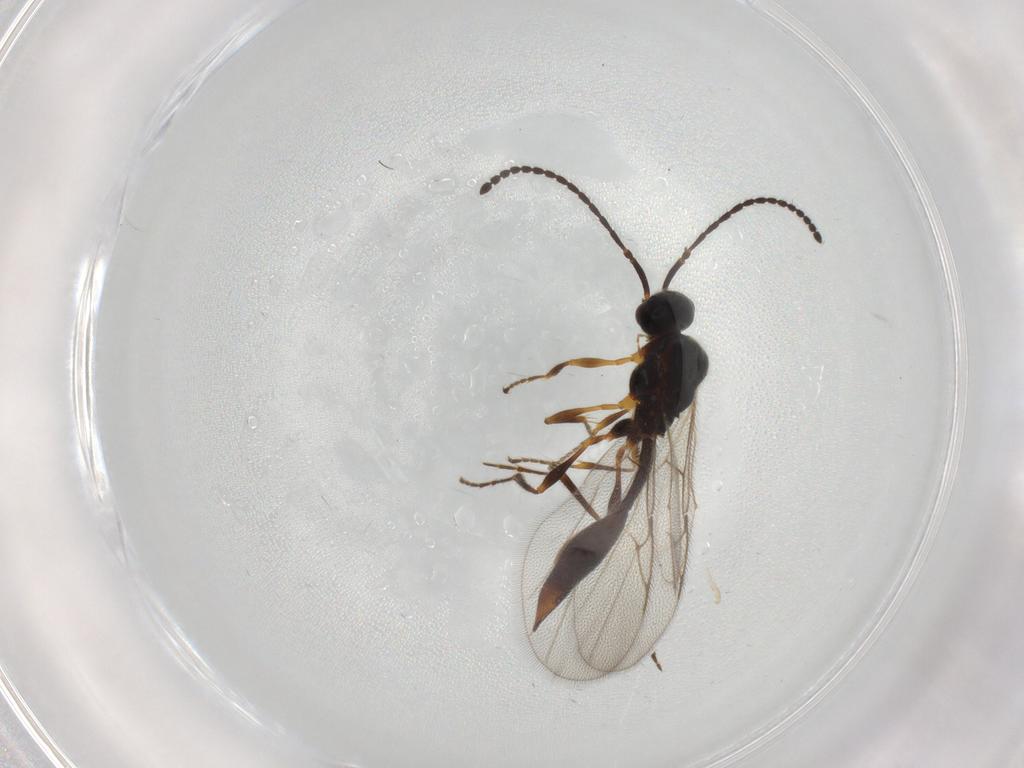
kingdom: Animalia
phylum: Arthropoda
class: Insecta
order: Hymenoptera
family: Diapriidae
